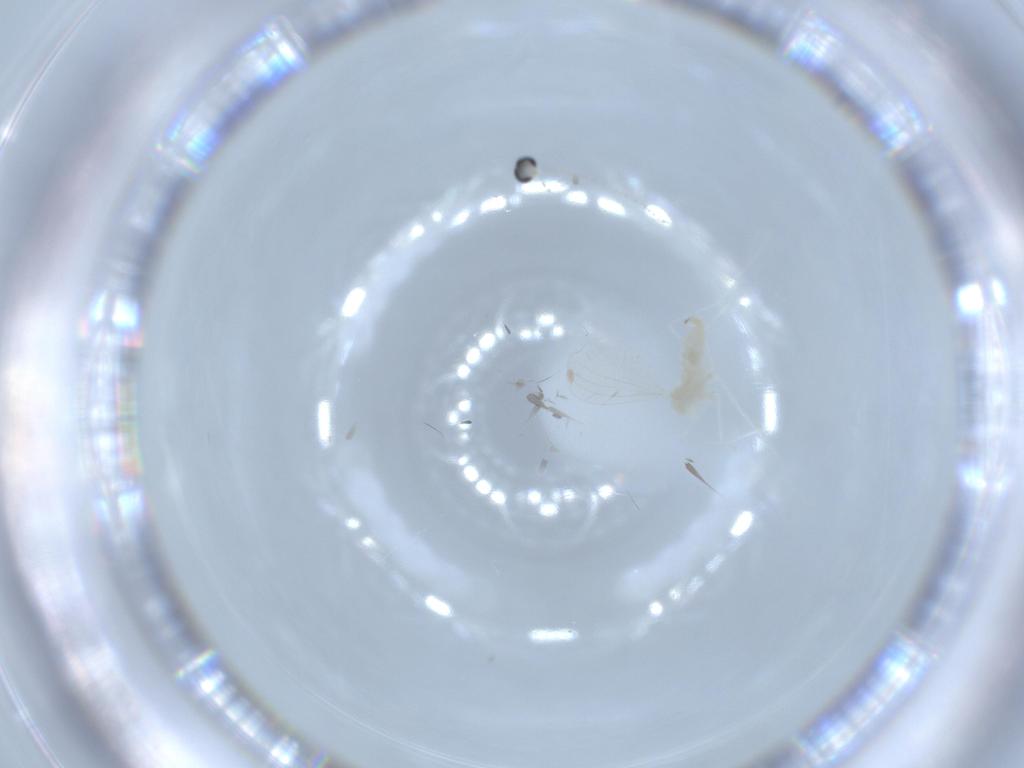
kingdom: Animalia
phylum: Arthropoda
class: Insecta
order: Diptera
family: Sciaridae
